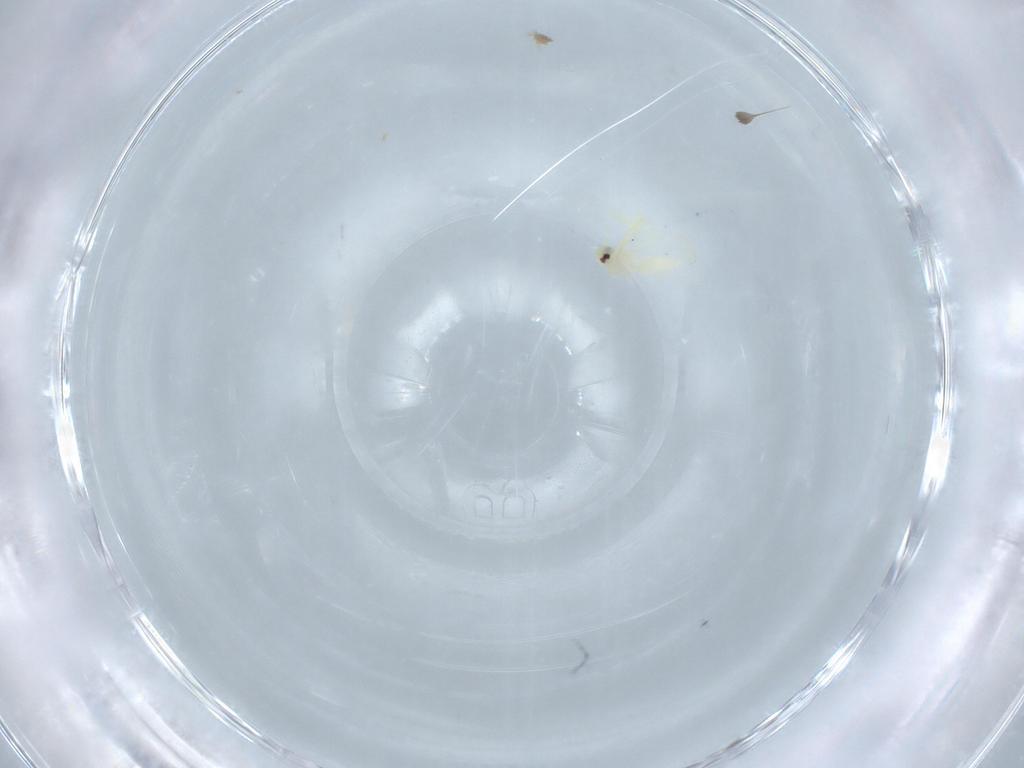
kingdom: Animalia
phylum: Arthropoda
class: Insecta
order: Hemiptera
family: Aleyrodidae
